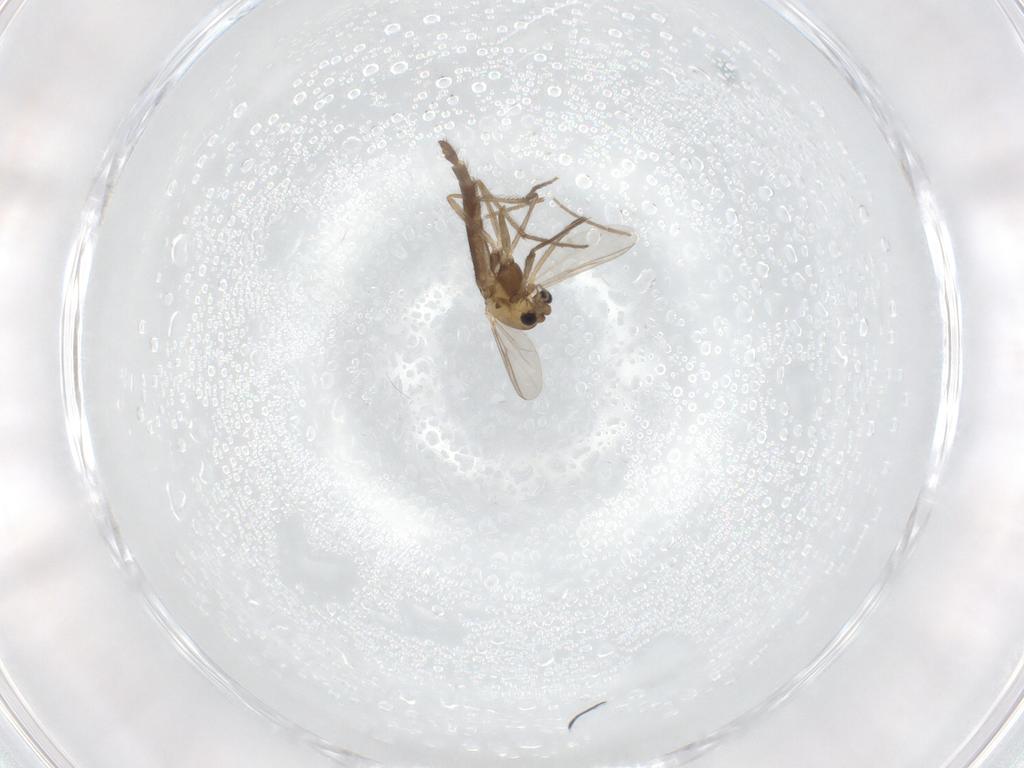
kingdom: Animalia
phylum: Arthropoda
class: Insecta
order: Diptera
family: Chironomidae
